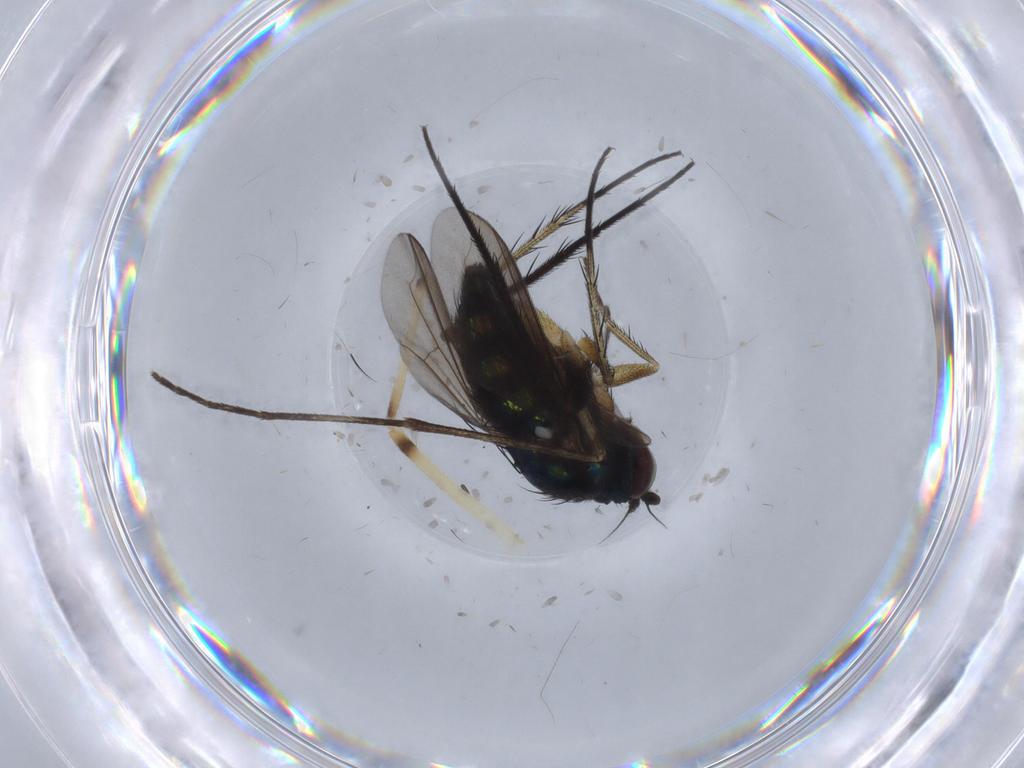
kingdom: Animalia
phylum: Arthropoda
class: Insecta
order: Diptera
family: Dolichopodidae
